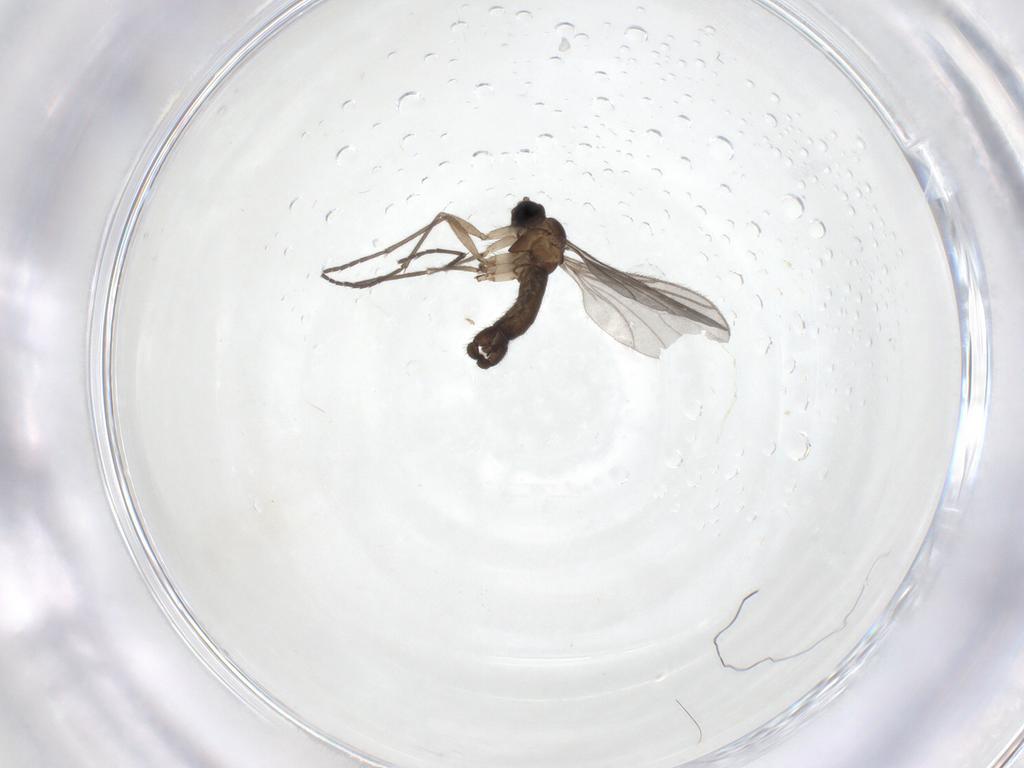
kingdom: Animalia
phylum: Arthropoda
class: Insecta
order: Diptera
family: Sciaridae
